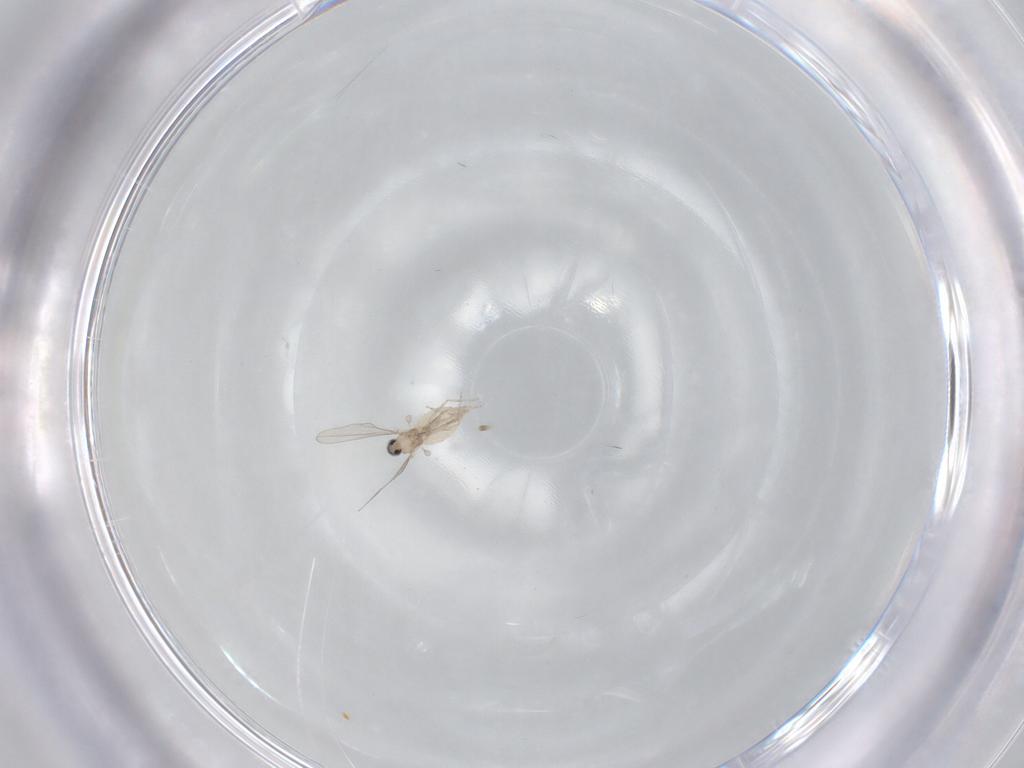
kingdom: Animalia
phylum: Arthropoda
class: Insecta
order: Diptera
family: Cecidomyiidae
